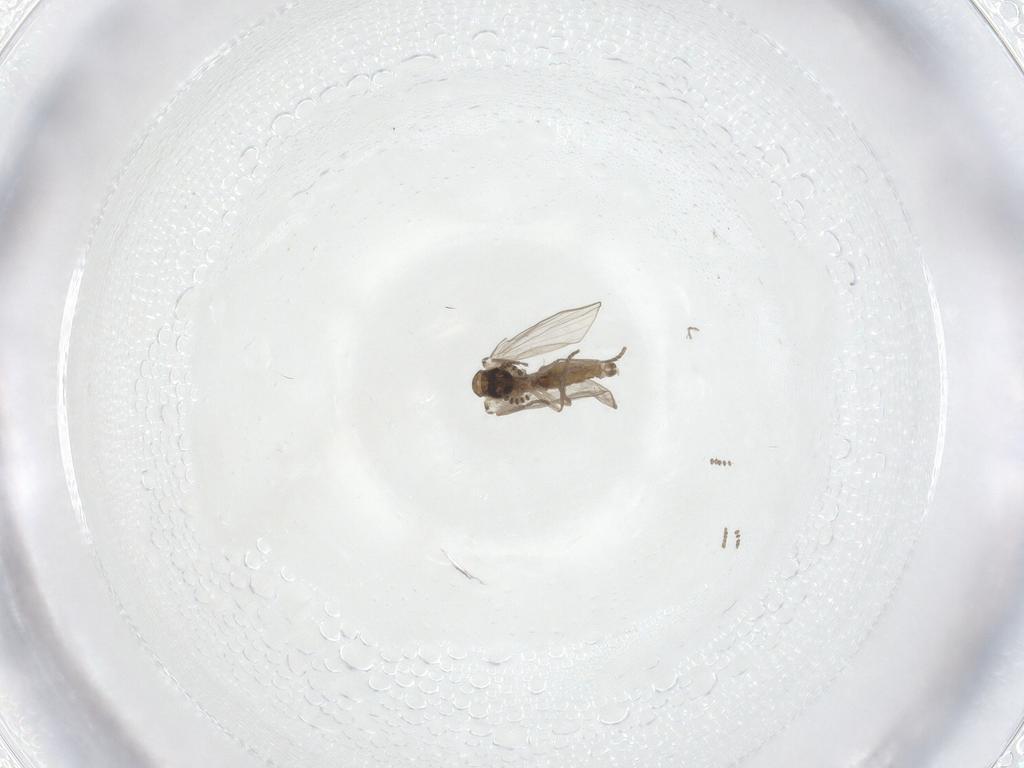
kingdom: Animalia
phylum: Arthropoda
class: Insecta
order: Diptera
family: Psychodidae
